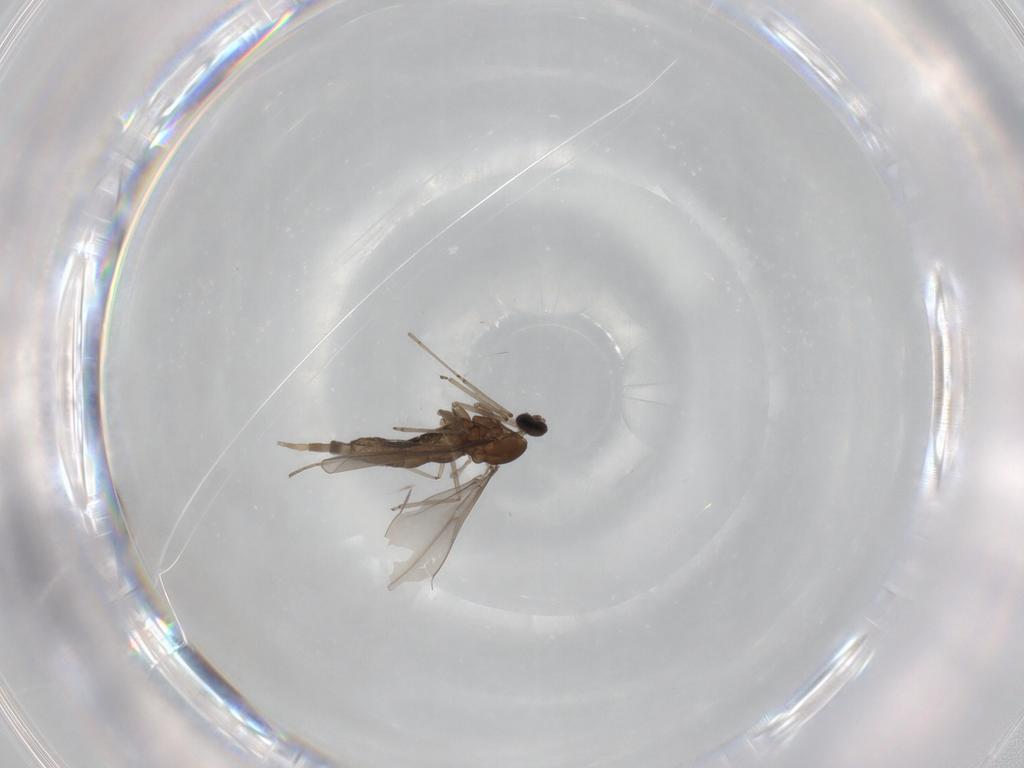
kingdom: Animalia
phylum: Arthropoda
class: Insecta
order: Diptera
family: Cecidomyiidae
